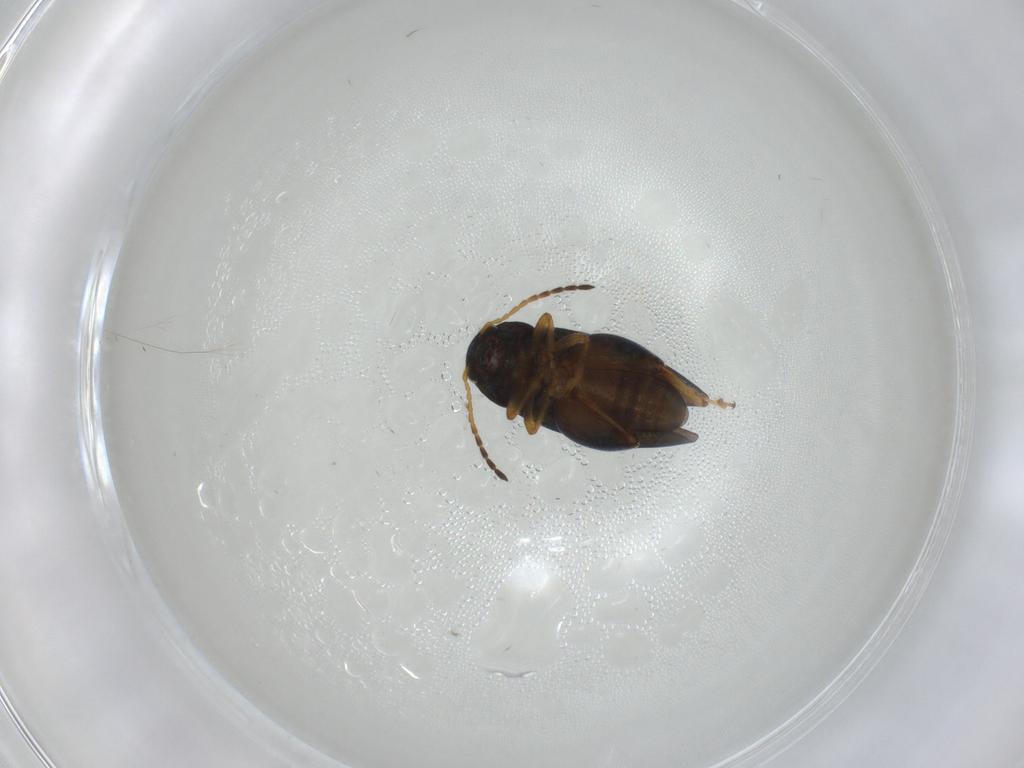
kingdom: Animalia
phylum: Arthropoda
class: Insecta
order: Coleoptera
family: Chrysomelidae
